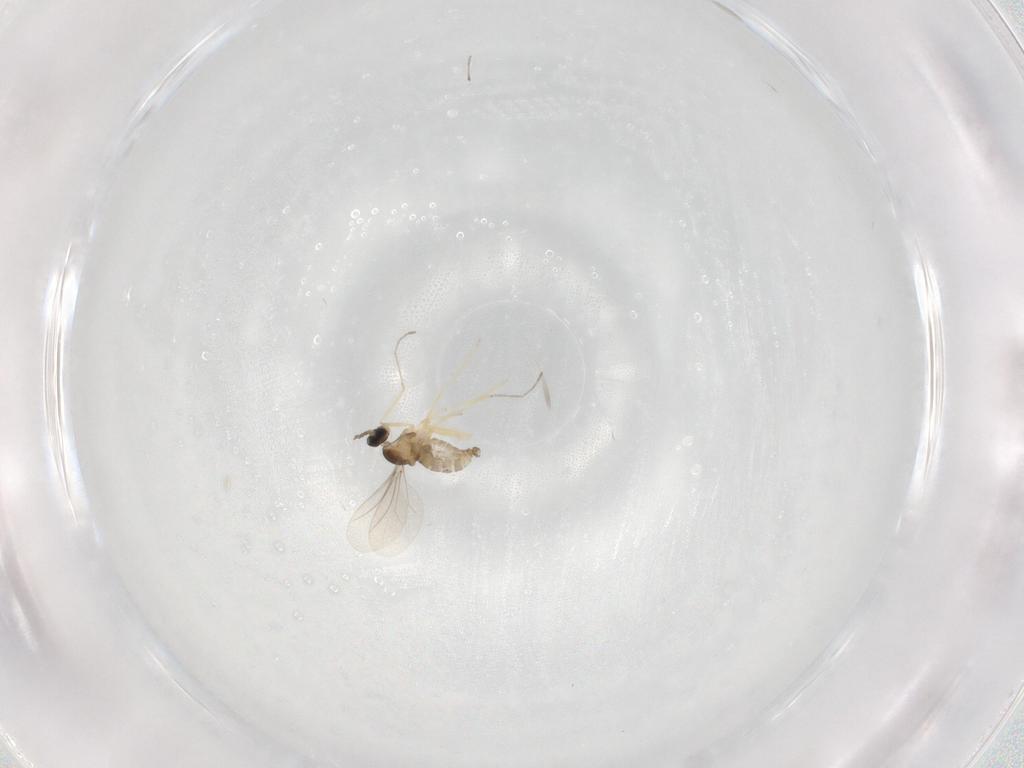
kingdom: Animalia
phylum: Arthropoda
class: Insecta
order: Diptera
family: Cecidomyiidae
